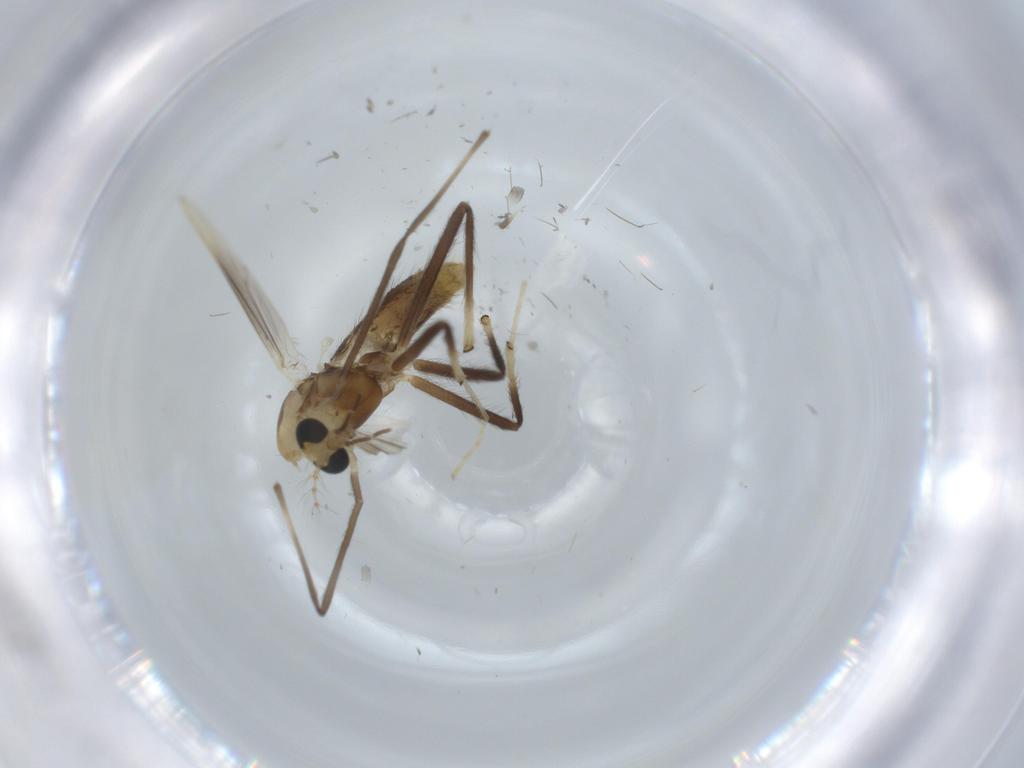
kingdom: Animalia
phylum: Arthropoda
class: Insecta
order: Diptera
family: Chironomidae
